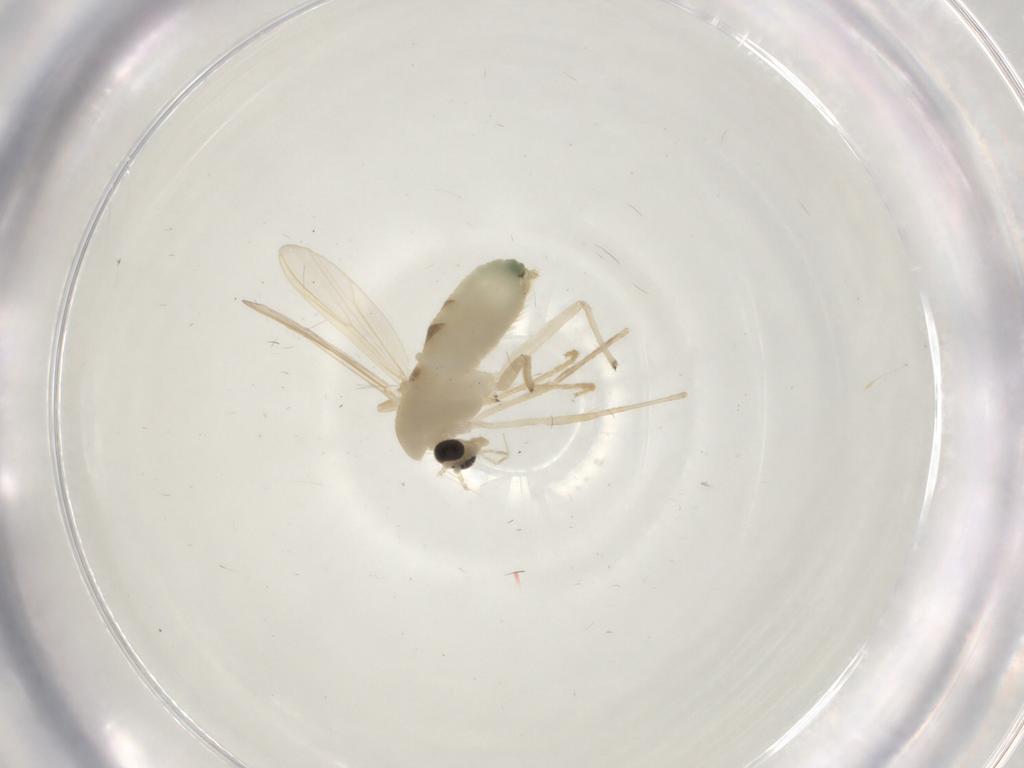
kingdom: Animalia
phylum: Arthropoda
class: Insecta
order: Diptera
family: Chironomidae
